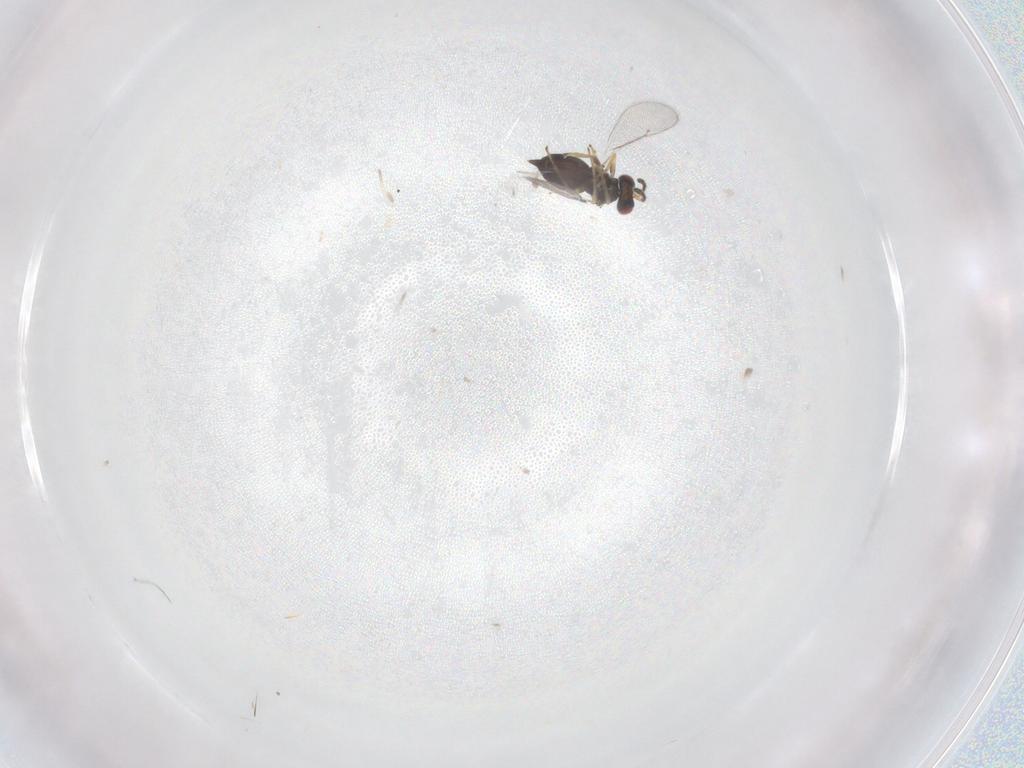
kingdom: Animalia
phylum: Arthropoda
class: Insecta
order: Hymenoptera
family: Eulophidae
